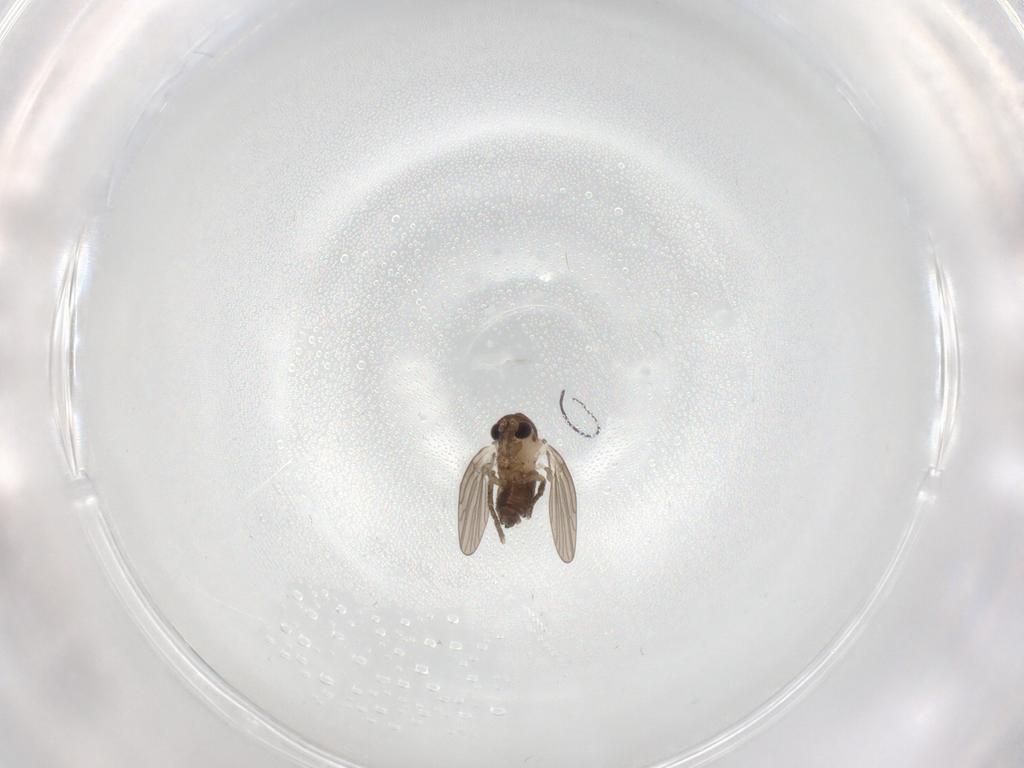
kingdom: Animalia
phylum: Arthropoda
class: Insecta
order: Diptera
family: Psychodidae
